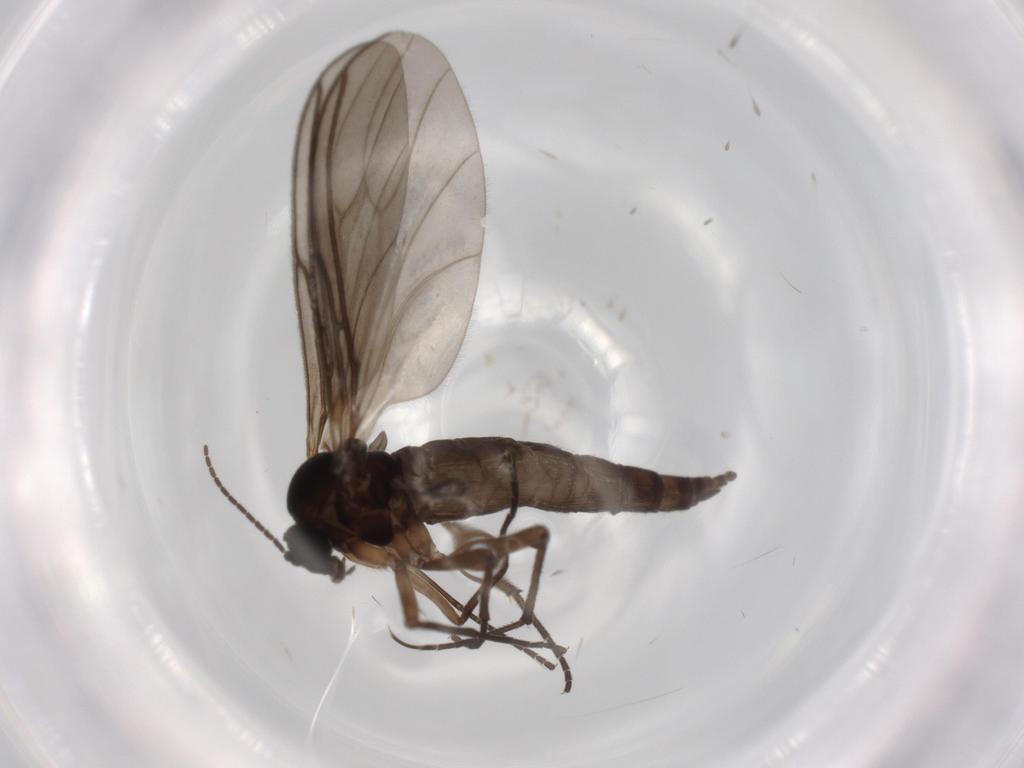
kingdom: Animalia
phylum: Arthropoda
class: Insecta
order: Diptera
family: Sciaridae
